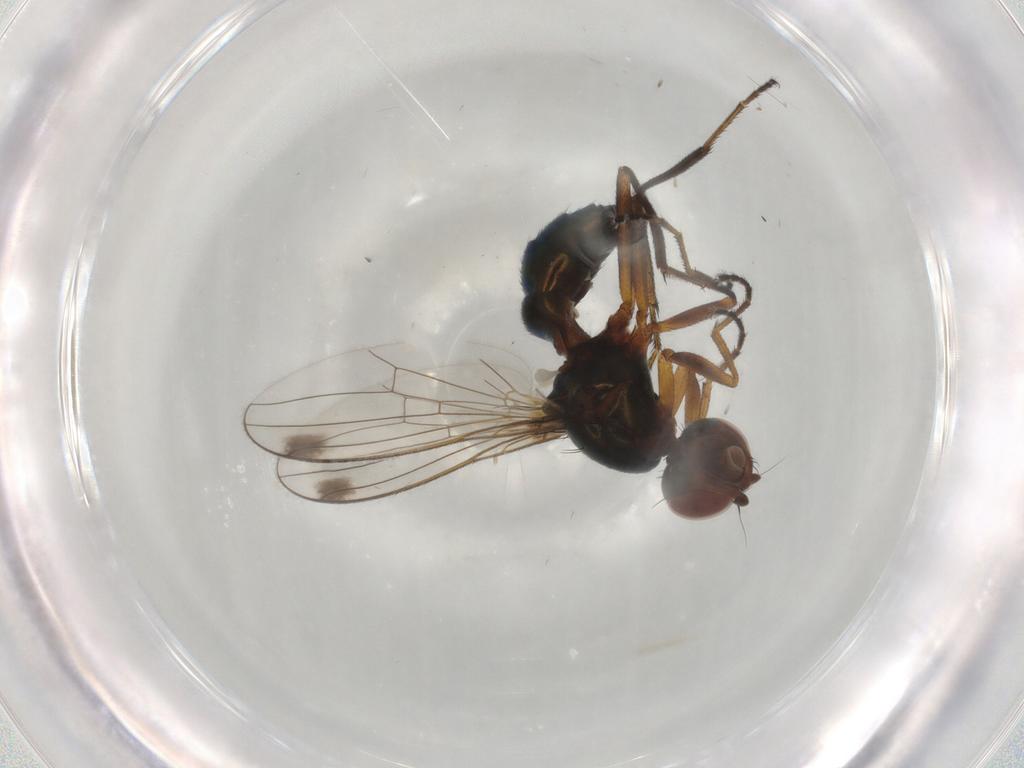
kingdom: Animalia
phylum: Arthropoda
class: Insecta
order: Diptera
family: Sepsidae
